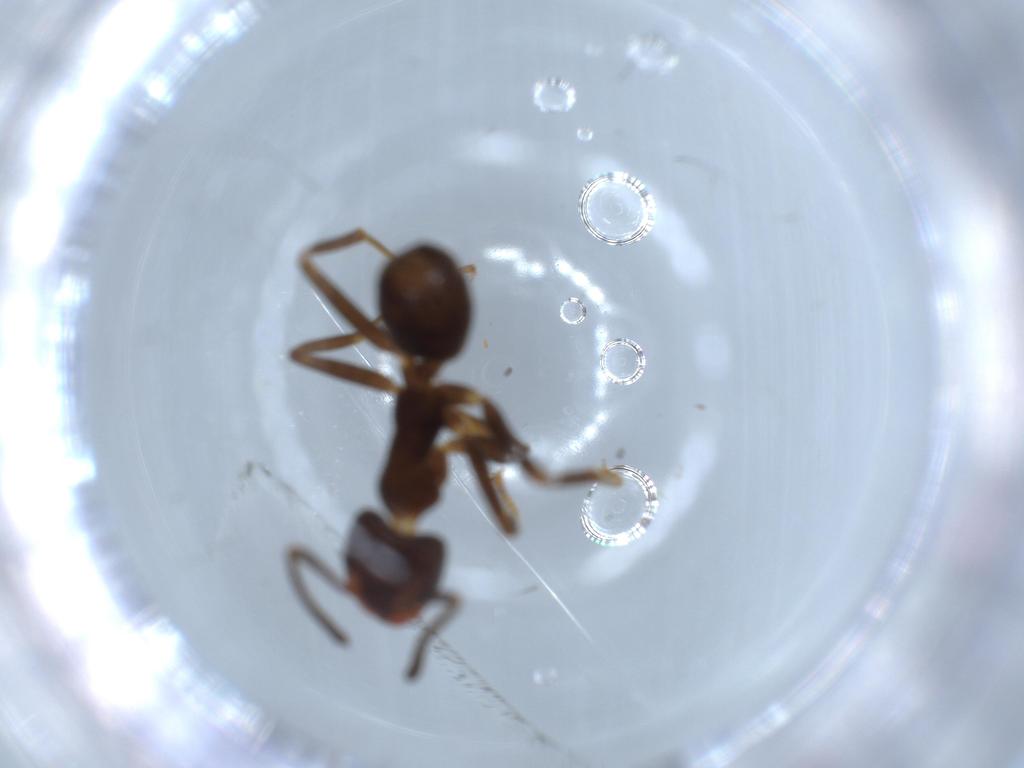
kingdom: Animalia
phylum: Arthropoda
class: Insecta
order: Hymenoptera
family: Formicidae
